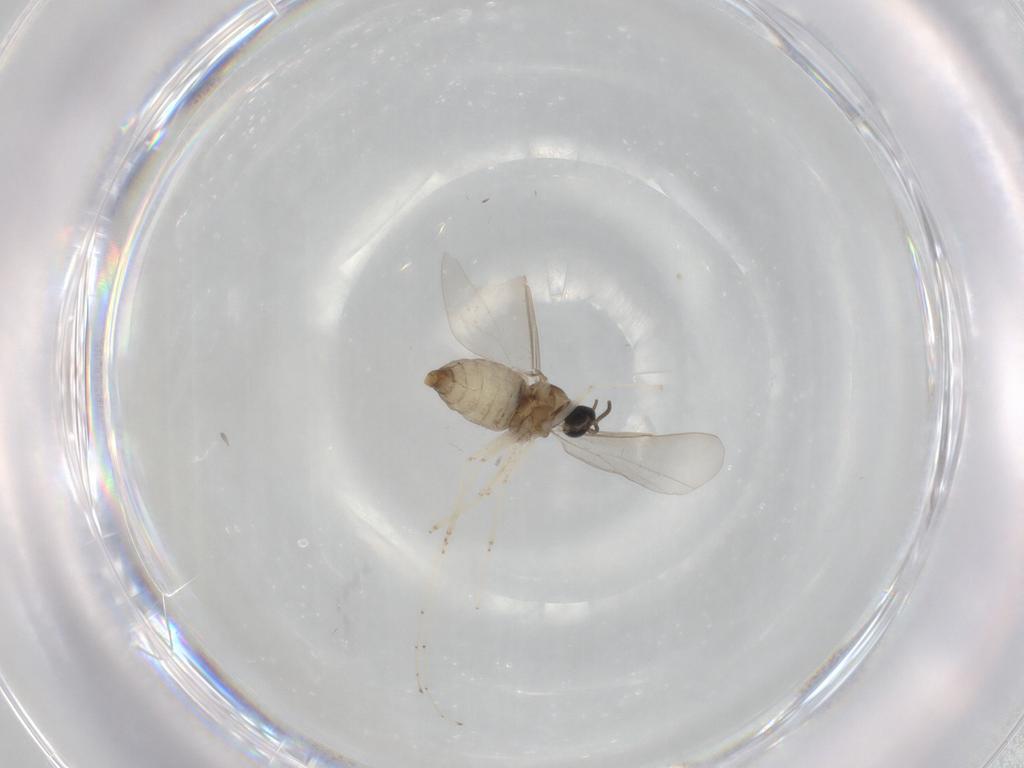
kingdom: Animalia
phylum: Arthropoda
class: Insecta
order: Diptera
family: Cecidomyiidae
